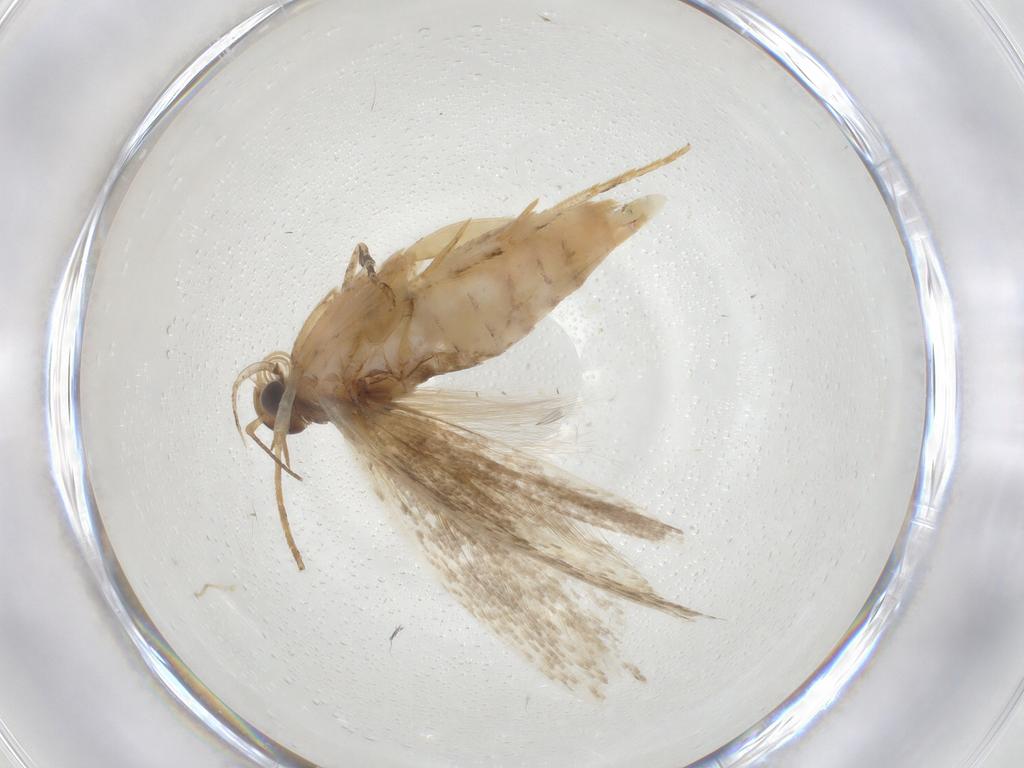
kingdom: Animalia
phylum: Arthropoda
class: Insecta
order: Lepidoptera
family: Gelechiidae
